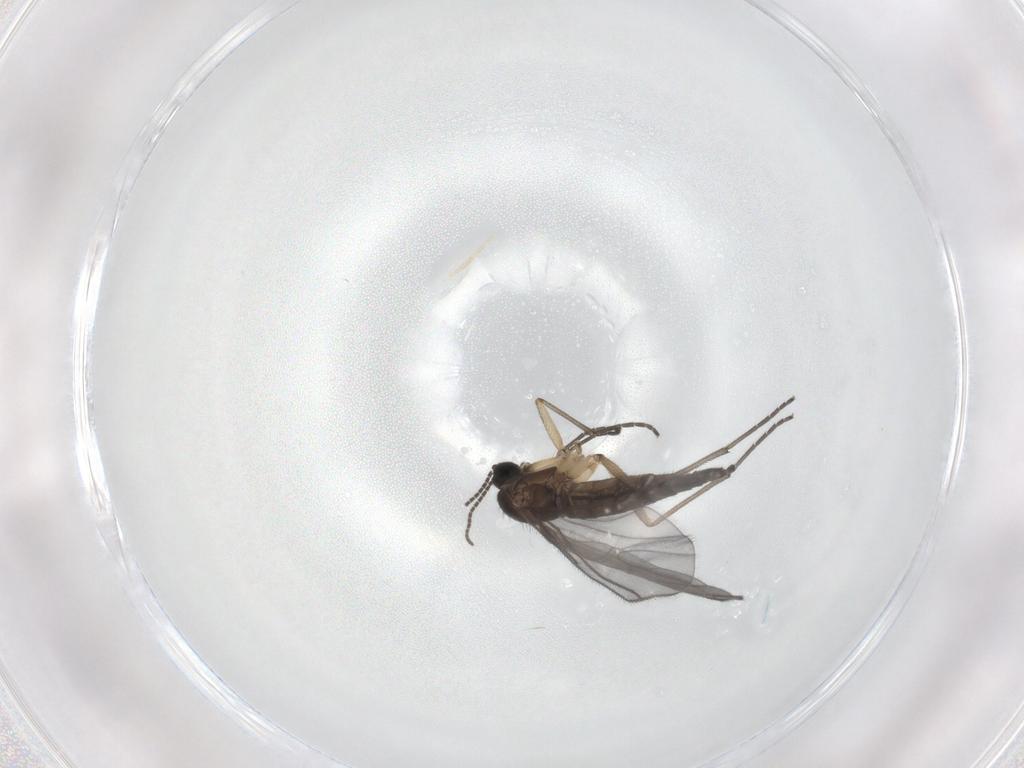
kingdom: Animalia
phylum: Arthropoda
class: Insecta
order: Diptera
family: Sciaridae
